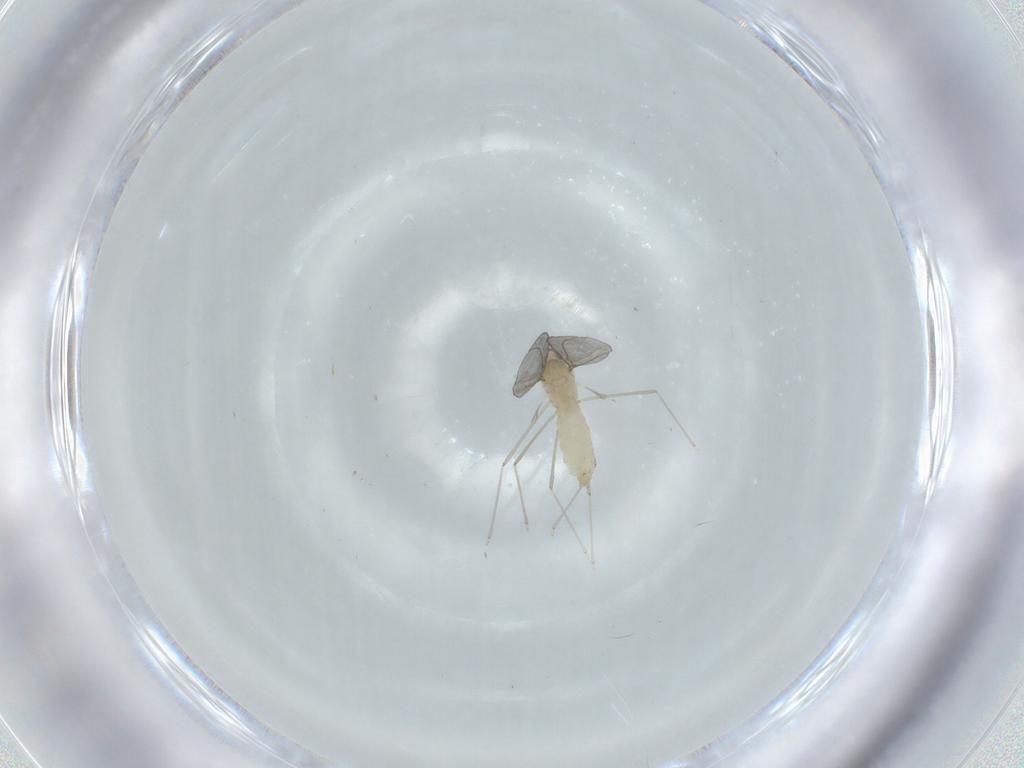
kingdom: Animalia
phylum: Arthropoda
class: Insecta
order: Diptera
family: Cecidomyiidae
